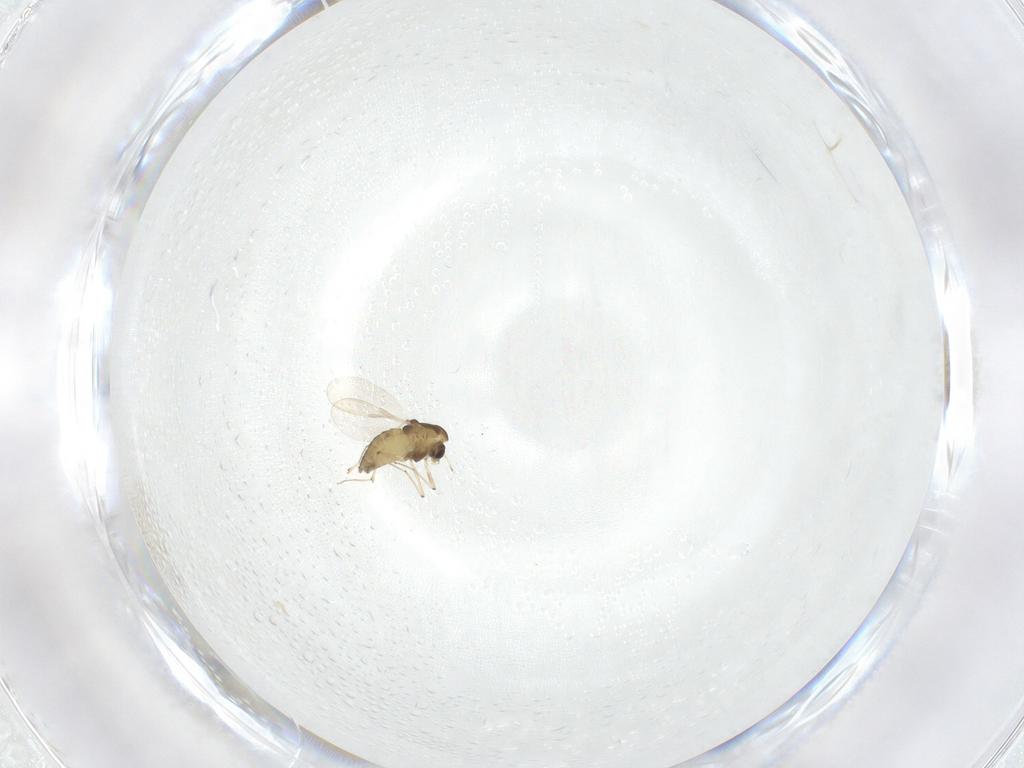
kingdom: Animalia
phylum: Arthropoda
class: Insecta
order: Diptera
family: Chironomidae
